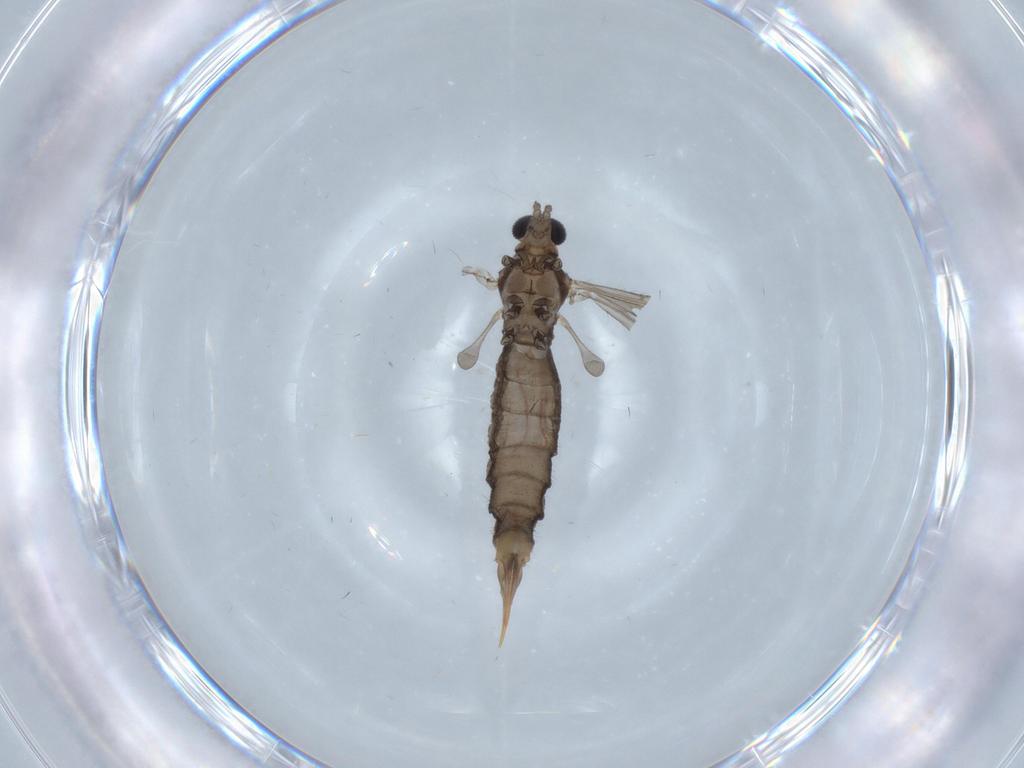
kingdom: Animalia
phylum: Arthropoda
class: Insecta
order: Diptera
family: Limoniidae
